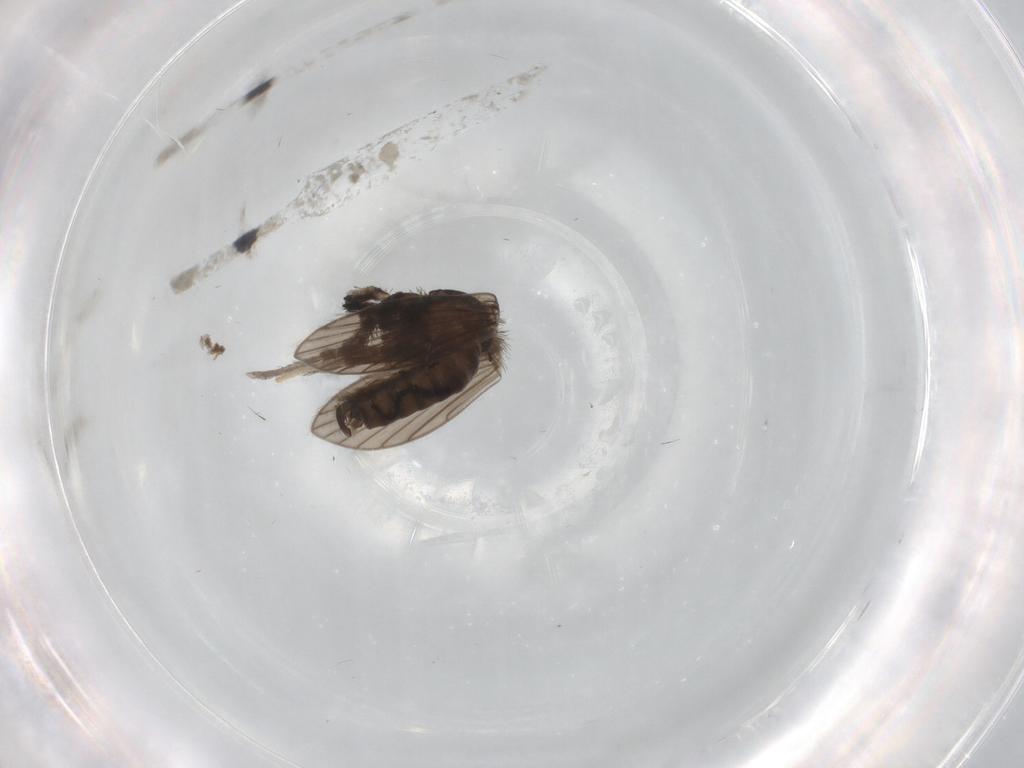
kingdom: Animalia
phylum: Arthropoda
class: Insecta
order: Diptera
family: Psychodidae
